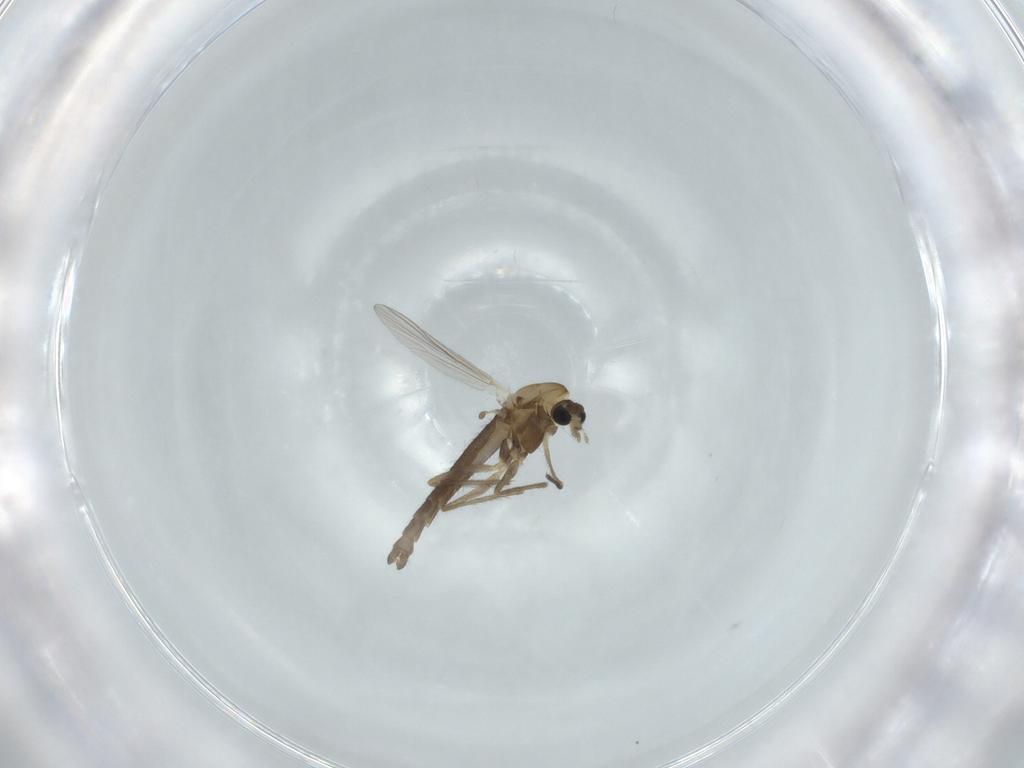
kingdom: Animalia
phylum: Arthropoda
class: Insecta
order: Diptera
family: Chironomidae
